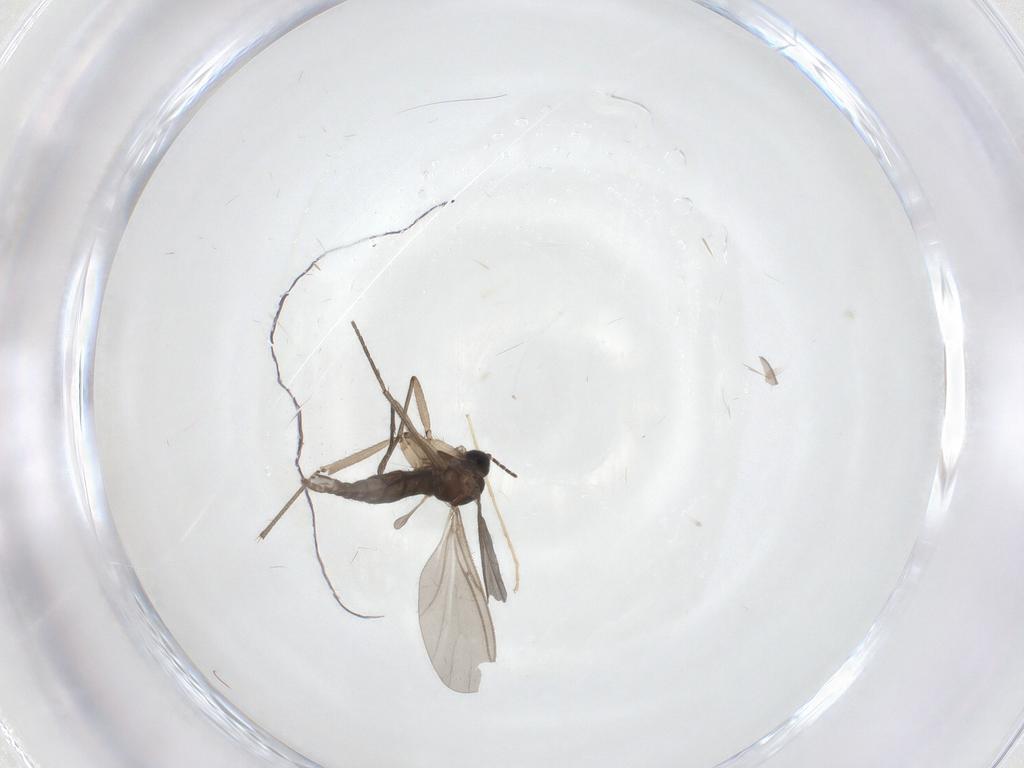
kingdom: Animalia
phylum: Arthropoda
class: Insecta
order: Diptera
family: Sciaridae
